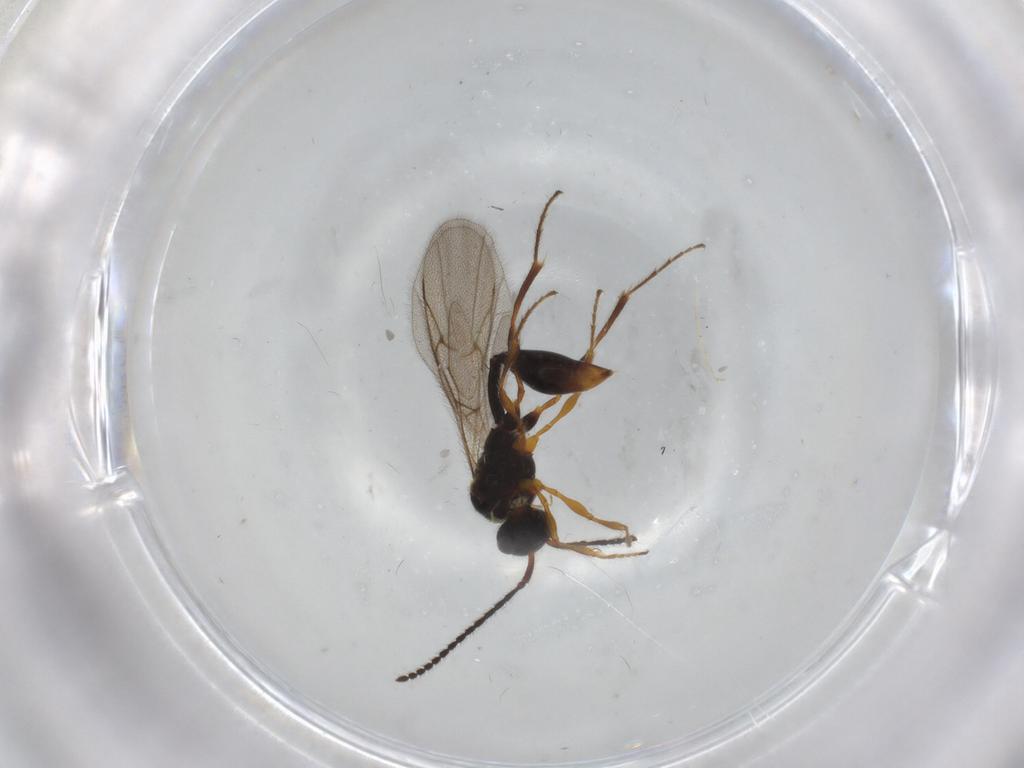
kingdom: Animalia
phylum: Arthropoda
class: Insecta
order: Hymenoptera
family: Diapriidae
